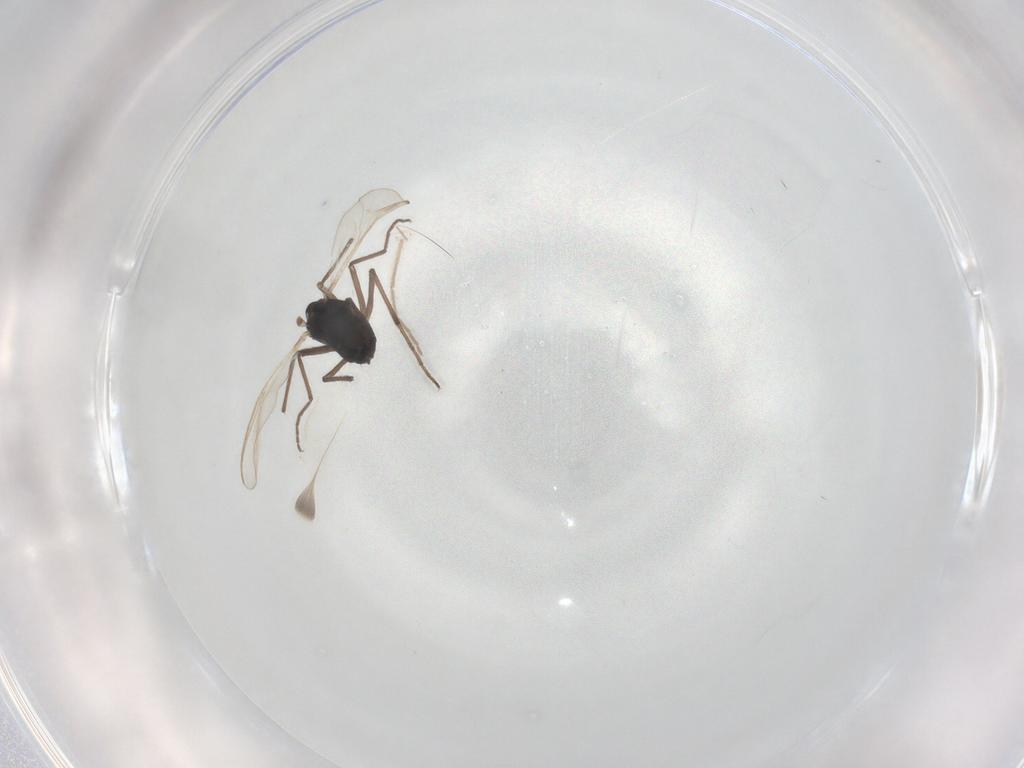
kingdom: Animalia
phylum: Arthropoda
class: Insecta
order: Diptera
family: Chironomidae
